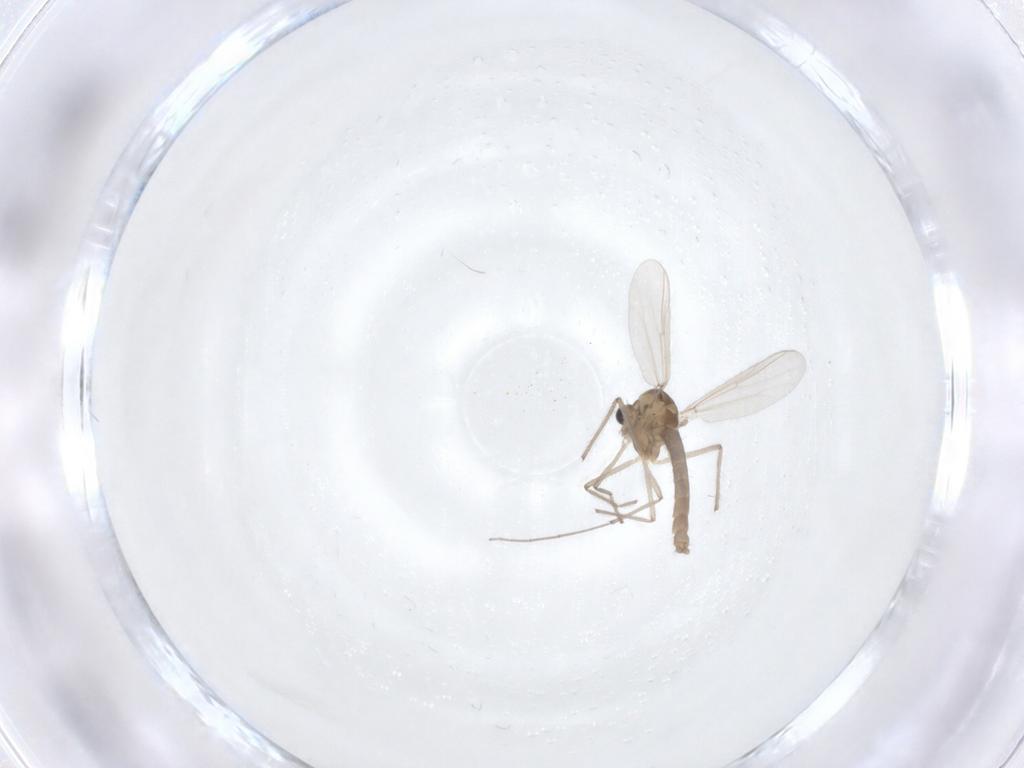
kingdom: Animalia
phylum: Arthropoda
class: Insecta
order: Diptera
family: Chironomidae
